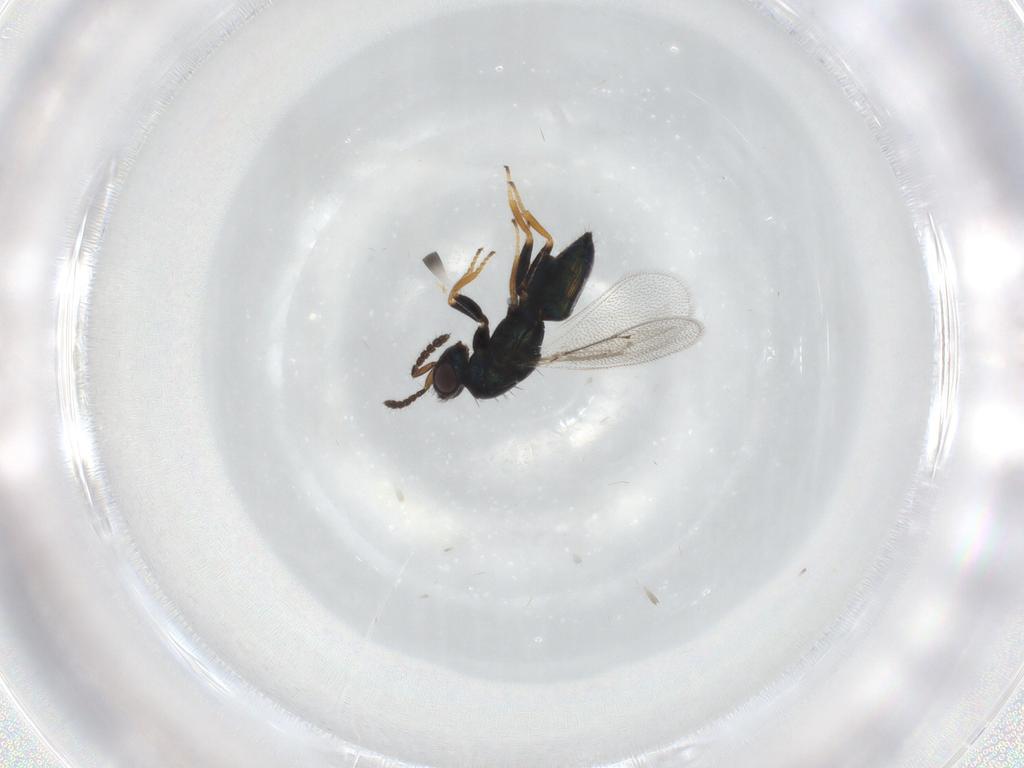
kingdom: Animalia
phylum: Arthropoda
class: Insecta
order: Hymenoptera
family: Eulophidae
